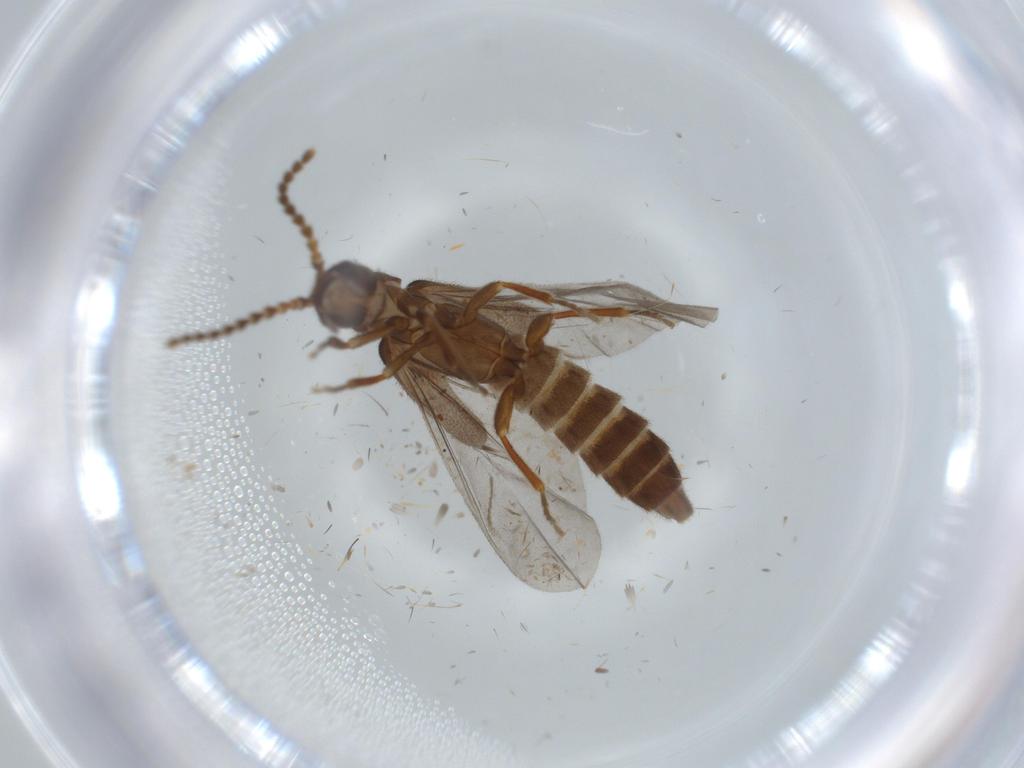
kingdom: Animalia
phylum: Arthropoda
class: Insecta
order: Coleoptera
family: Omethidae
